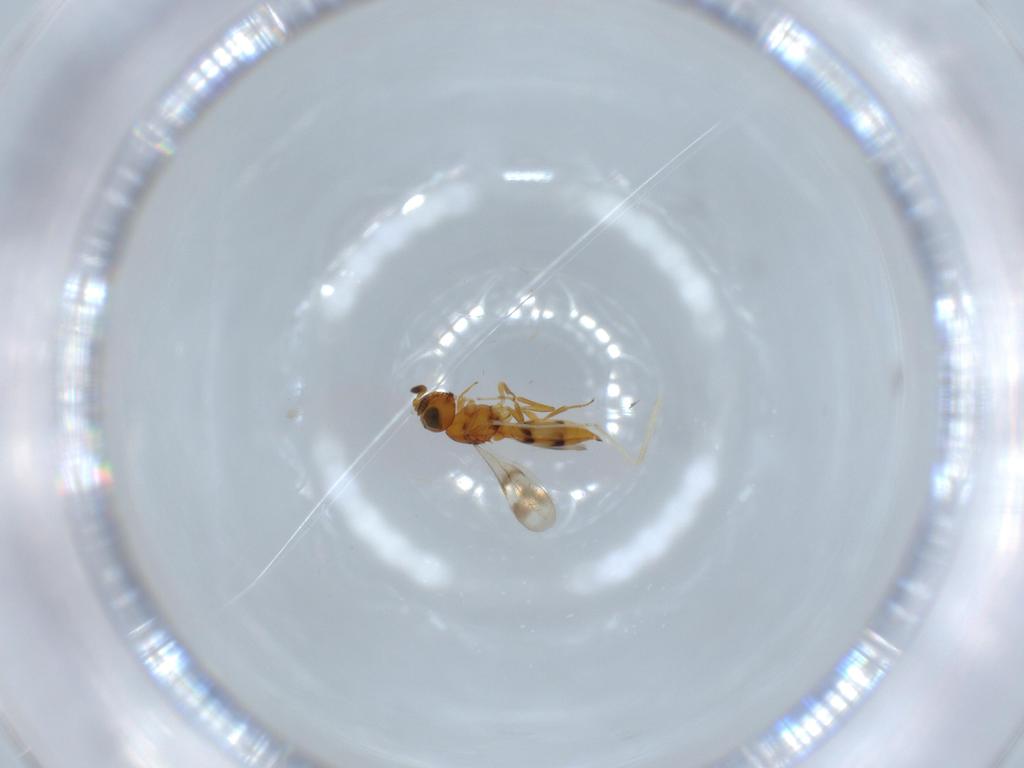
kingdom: Animalia
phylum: Arthropoda
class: Insecta
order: Hymenoptera
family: Scelionidae
